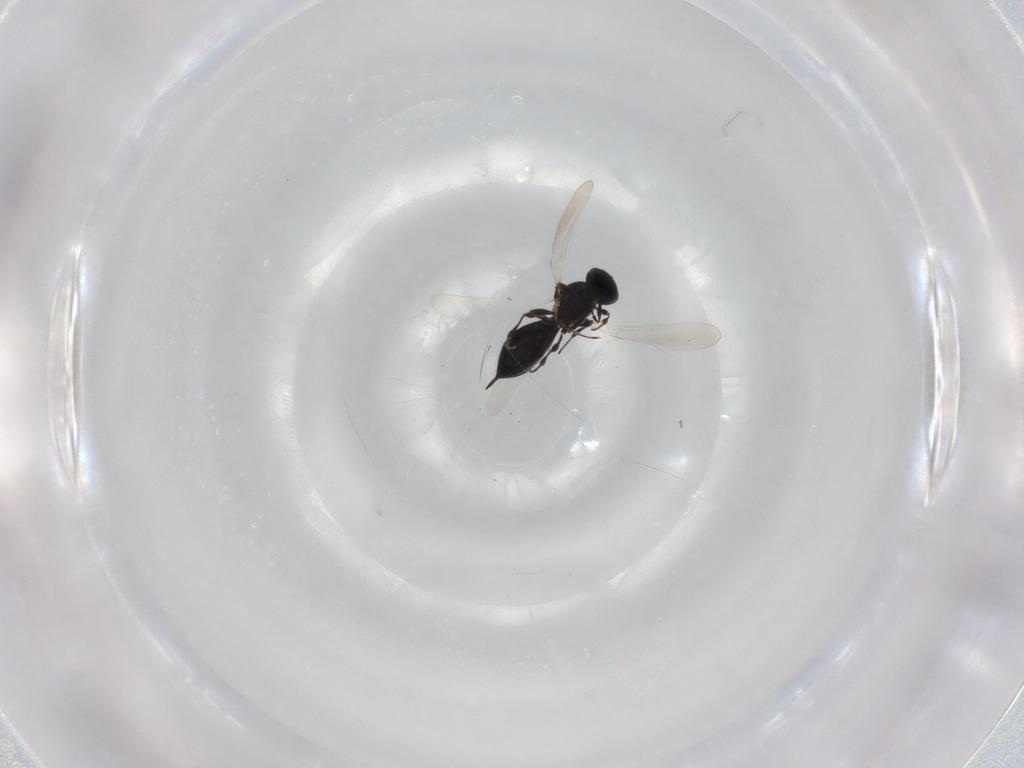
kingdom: Animalia
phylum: Arthropoda
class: Insecta
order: Hymenoptera
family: Platygastridae
